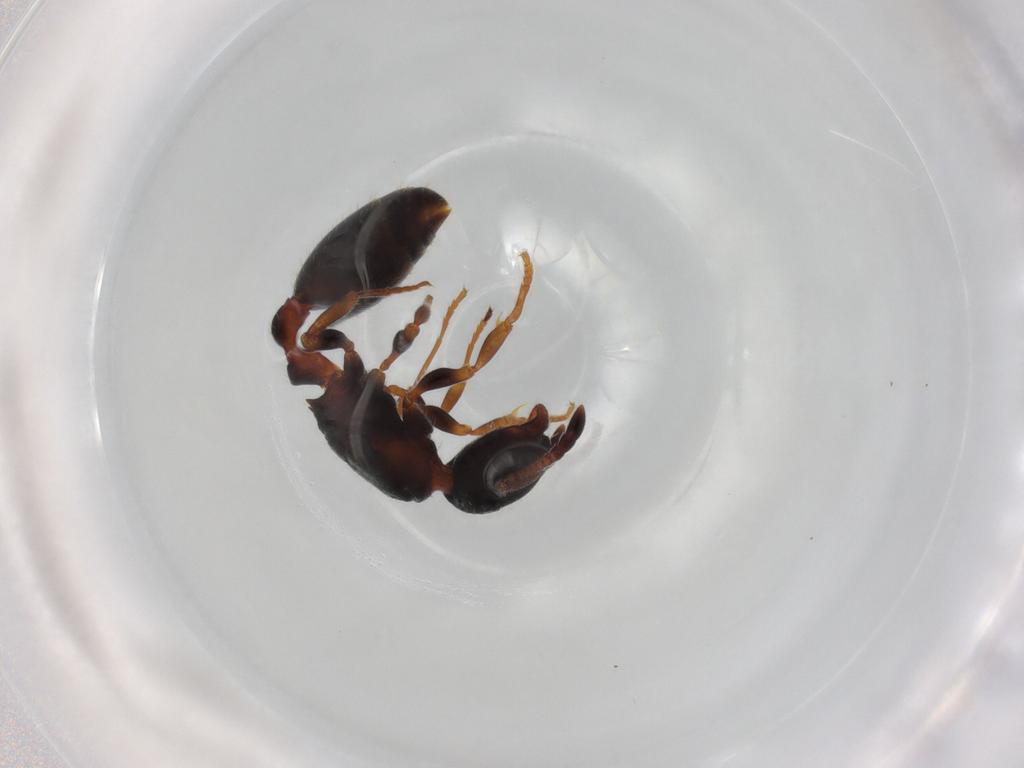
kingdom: Animalia
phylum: Arthropoda
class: Insecta
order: Hymenoptera
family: Formicidae
